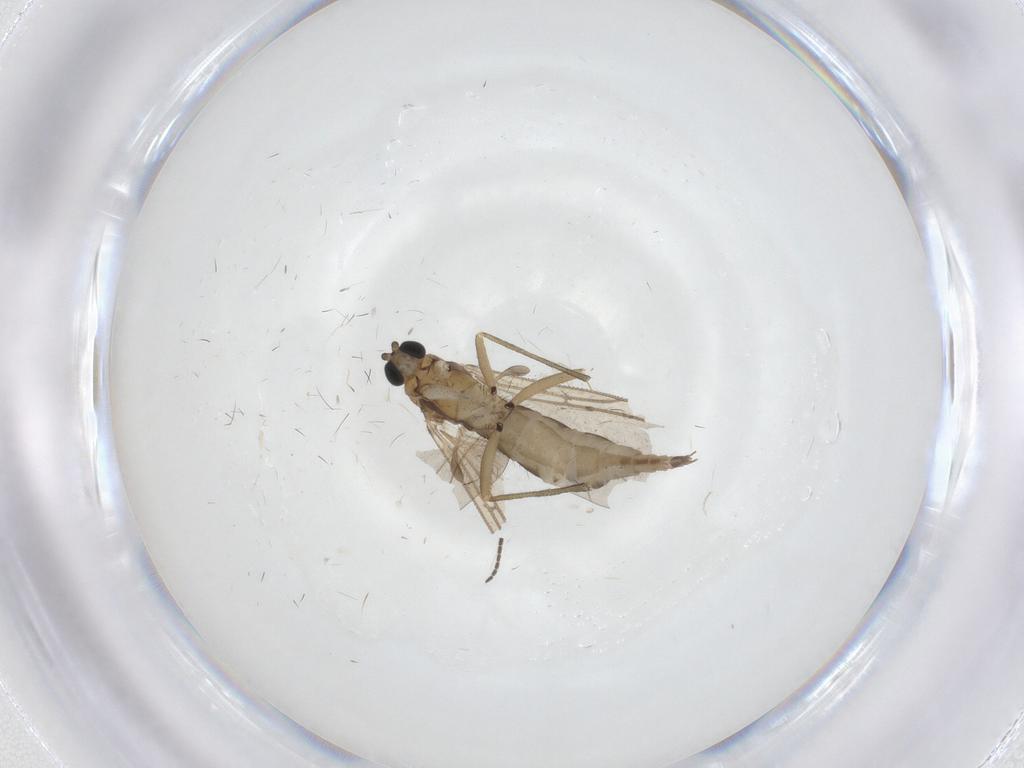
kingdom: Animalia
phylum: Arthropoda
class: Insecta
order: Diptera
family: Sciaridae
